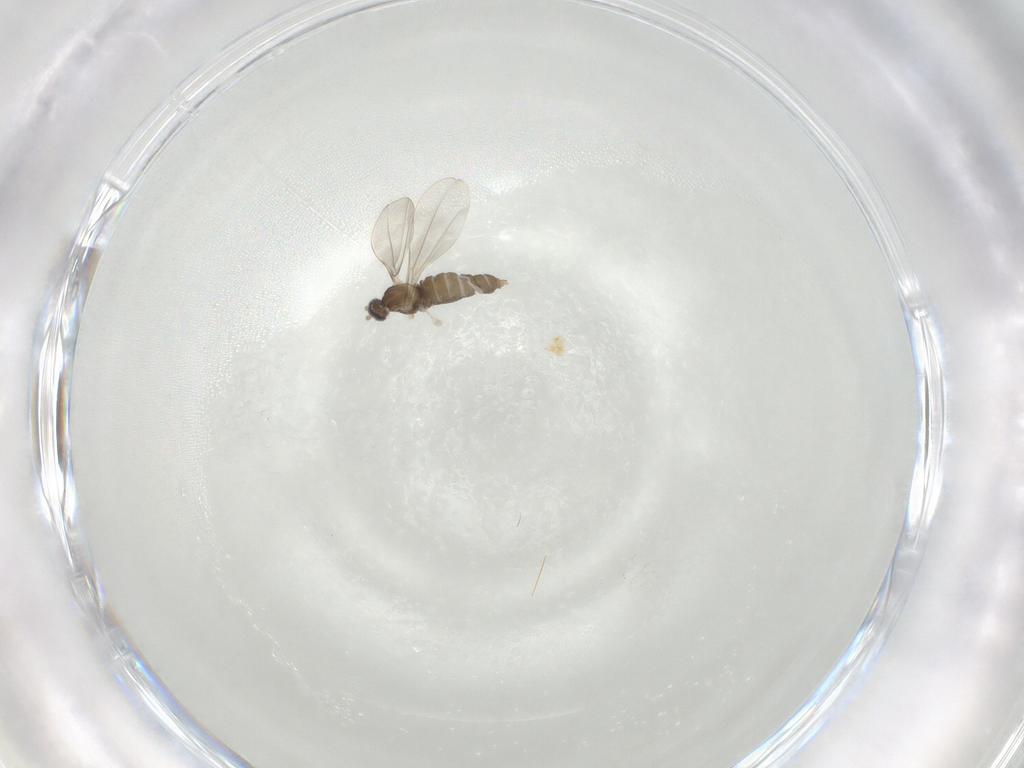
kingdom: Animalia
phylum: Arthropoda
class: Insecta
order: Diptera
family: Cecidomyiidae
